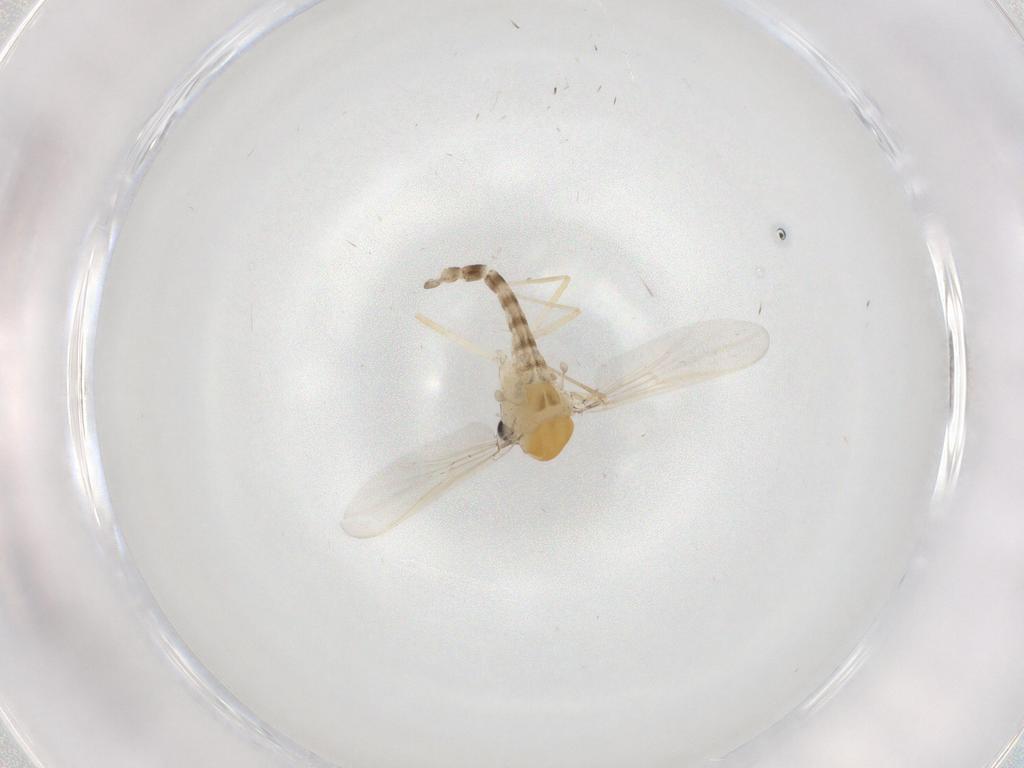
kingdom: Animalia
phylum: Arthropoda
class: Insecta
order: Diptera
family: Chironomidae
